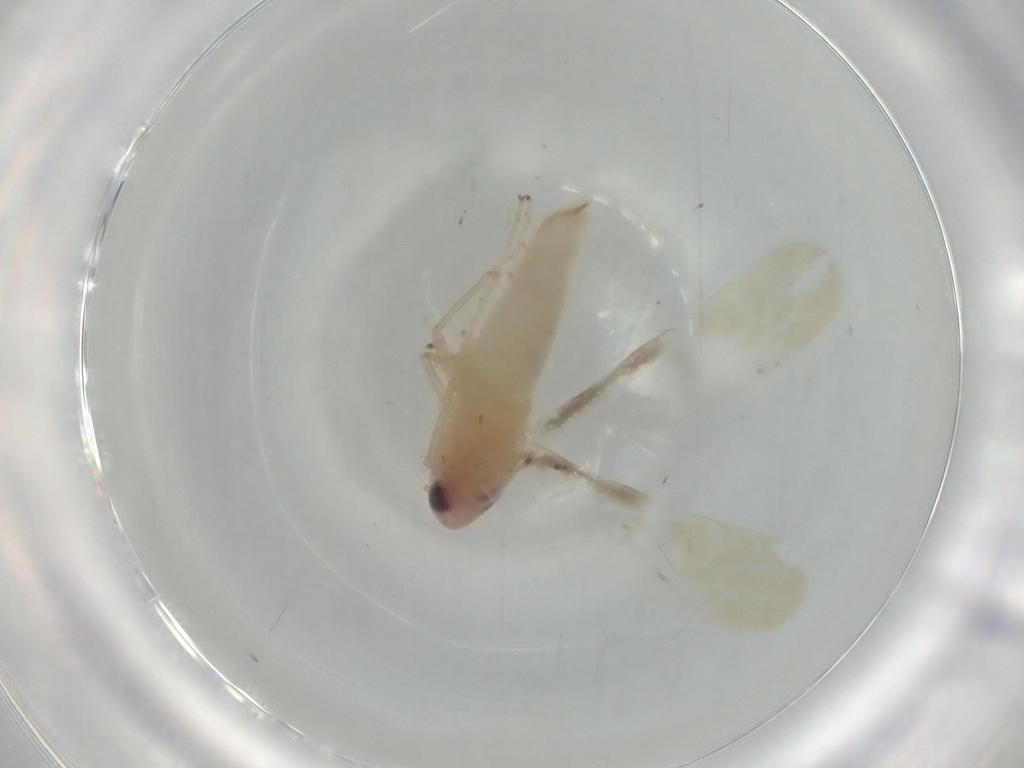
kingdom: Animalia
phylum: Arthropoda
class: Insecta
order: Hemiptera
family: Cicadellidae
